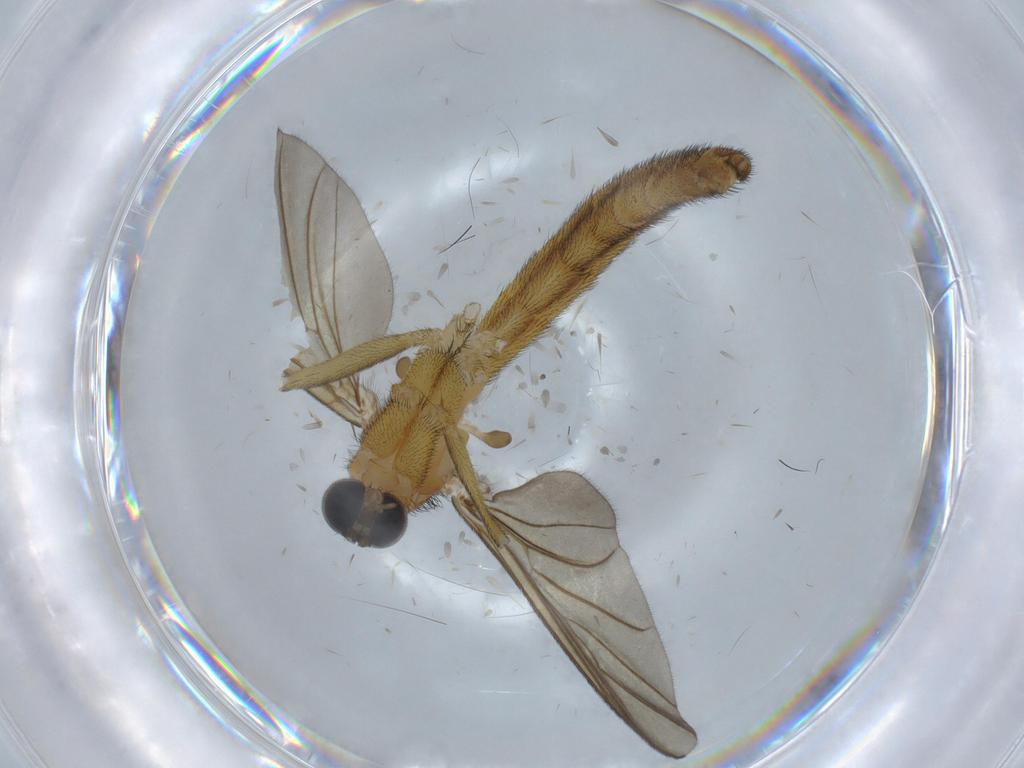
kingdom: Animalia
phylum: Arthropoda
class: Insecta
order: Diptera
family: Chironomidae
